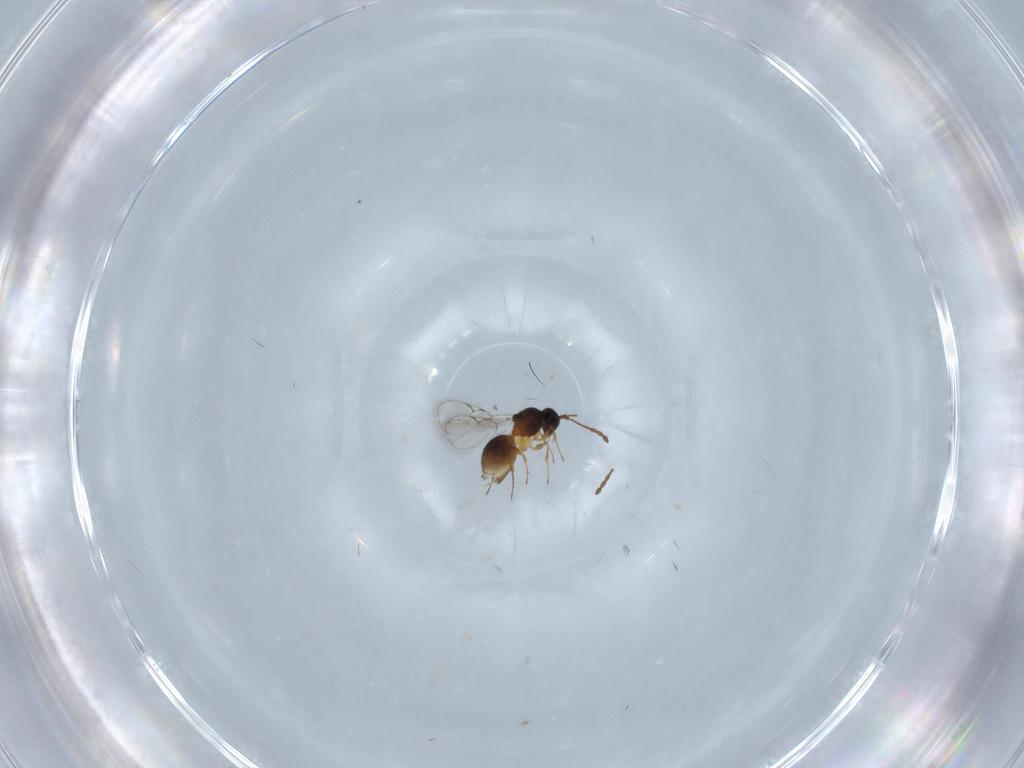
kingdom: Animalia
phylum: Arthropoda
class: Insecta
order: Hymenoptera
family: Figitidae
